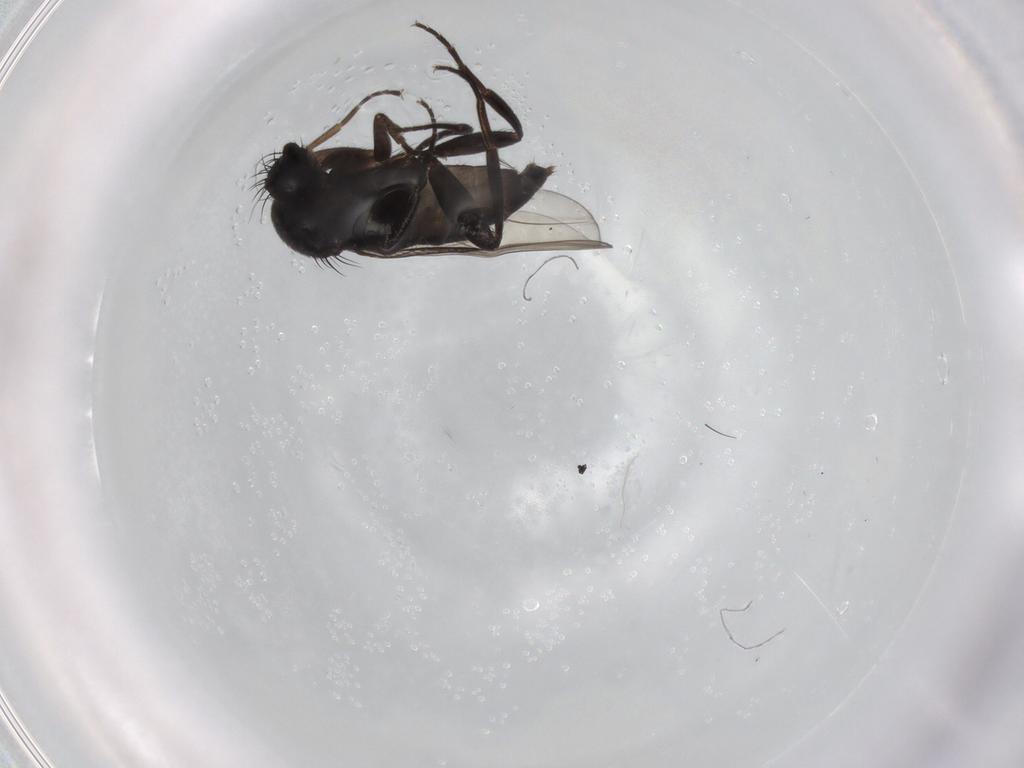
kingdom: Animalia
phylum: Arthropoda
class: Insecta
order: Diptera
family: Phoridae
